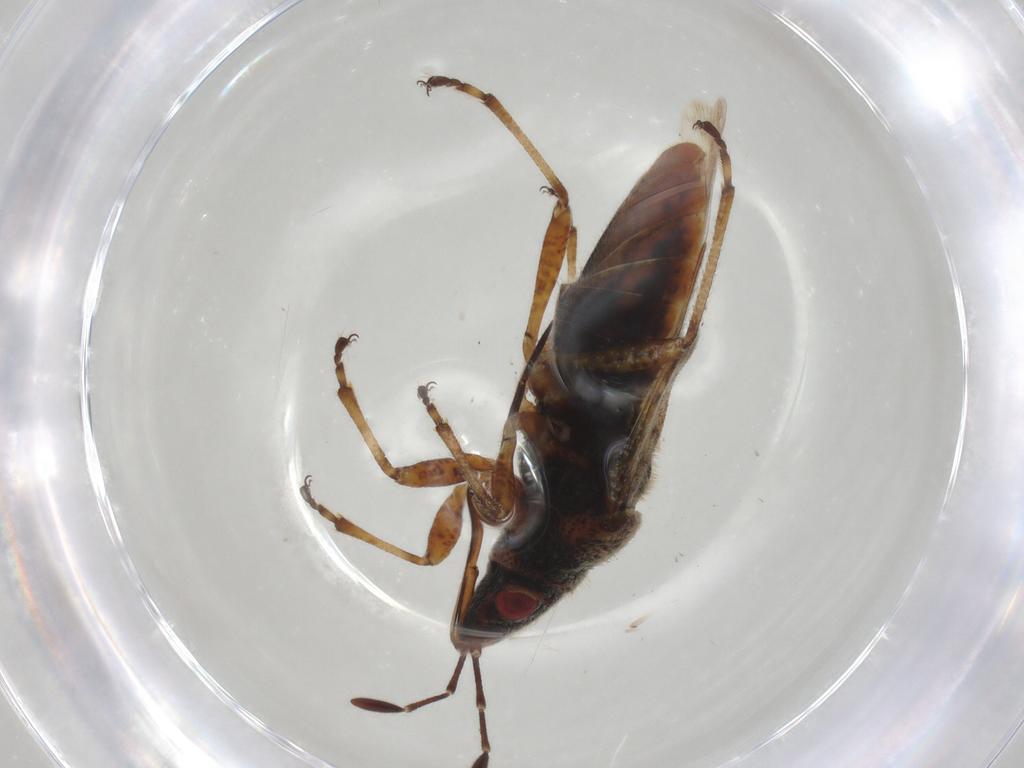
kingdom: Animalia
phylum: Arthropoda
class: Insecta
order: Hemiptera
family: Lygaeidae
